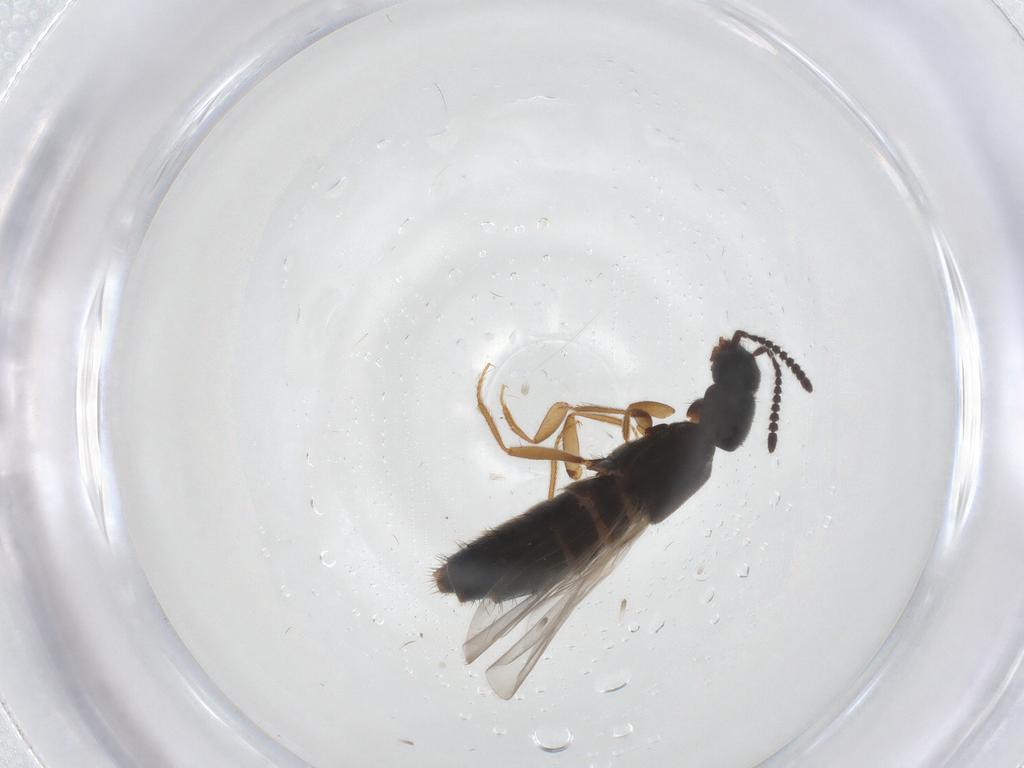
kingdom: Animalia
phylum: Arthropoda
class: Insecta
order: Coleoptera
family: Staphylinidae
